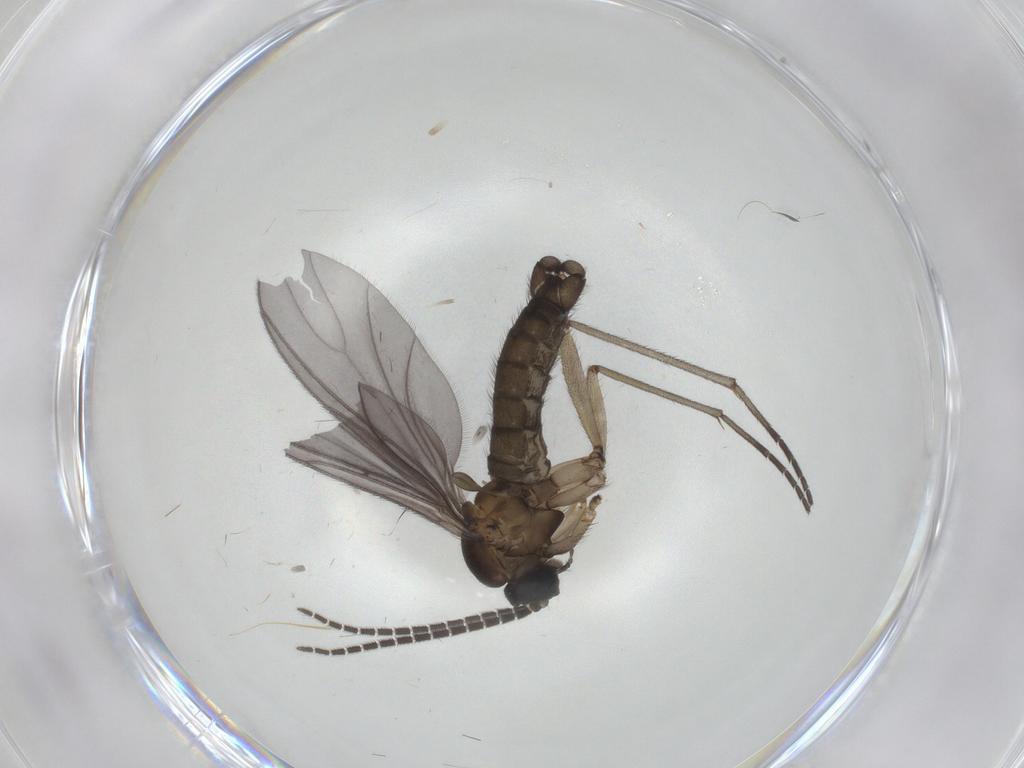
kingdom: Animalia
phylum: Arthropoda
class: Insecta
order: Diptera
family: Sciaridae
